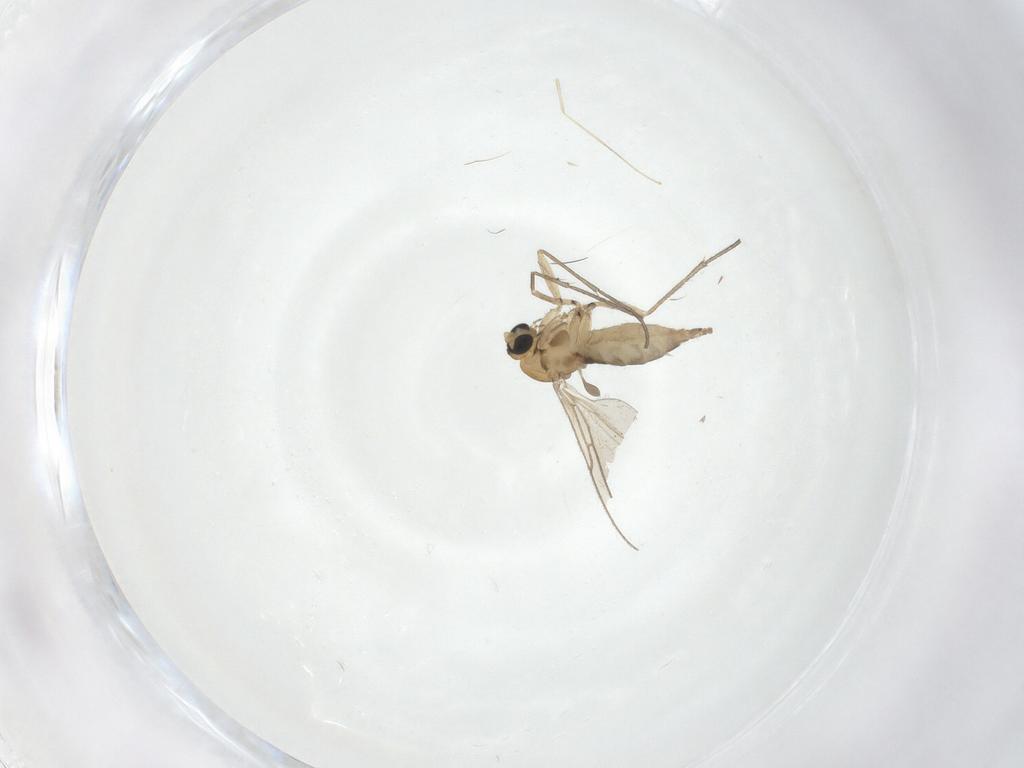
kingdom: Animalia
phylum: Arthropoda
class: Insecta
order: Diptera
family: Sciaridae
